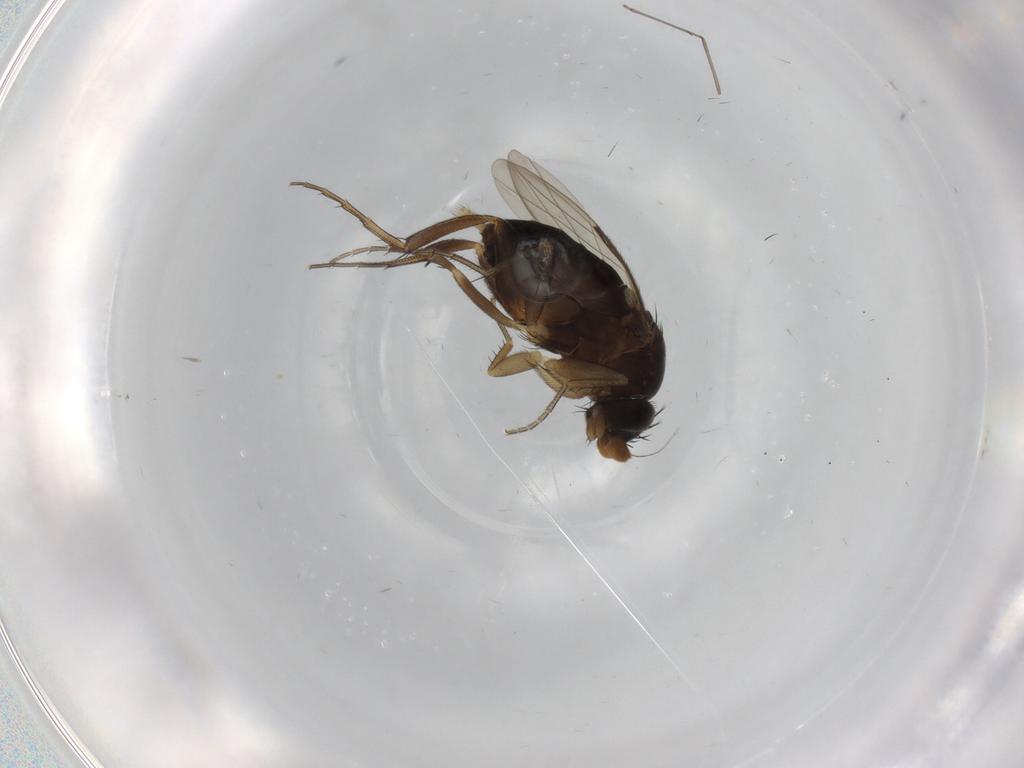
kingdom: Animalia
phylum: Arthropoda
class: Insecta
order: Diptera
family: Phoridae
